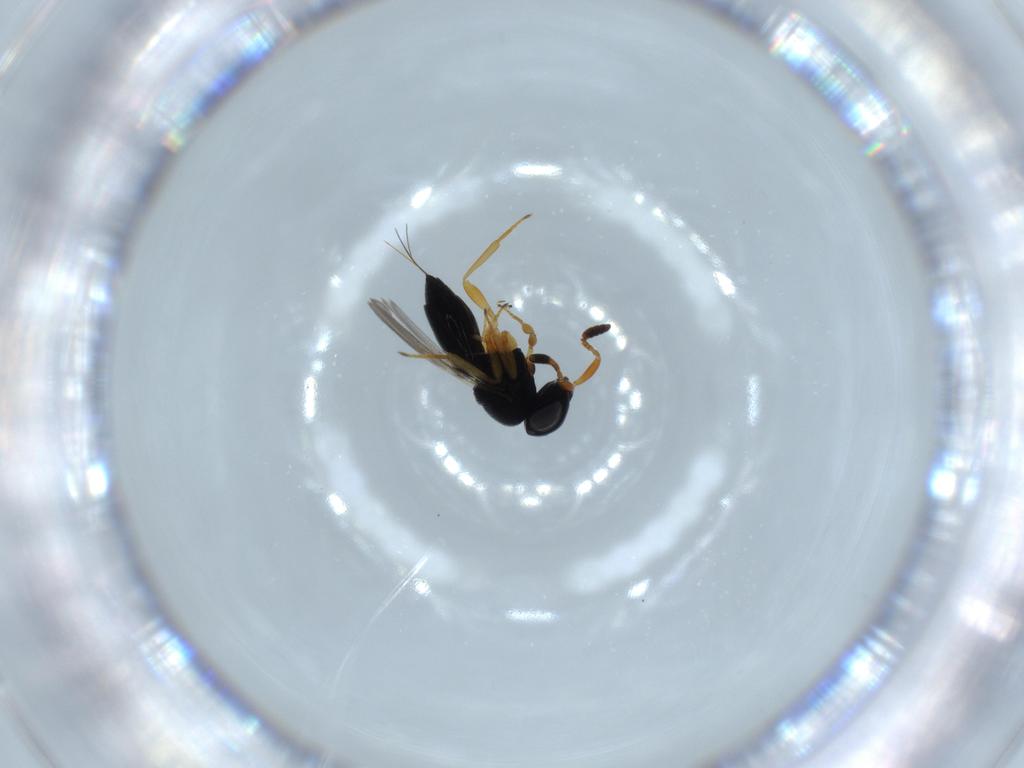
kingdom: Animalia
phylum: Arthropoda
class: Insecta
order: Hymenoptera
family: Scelionidae
